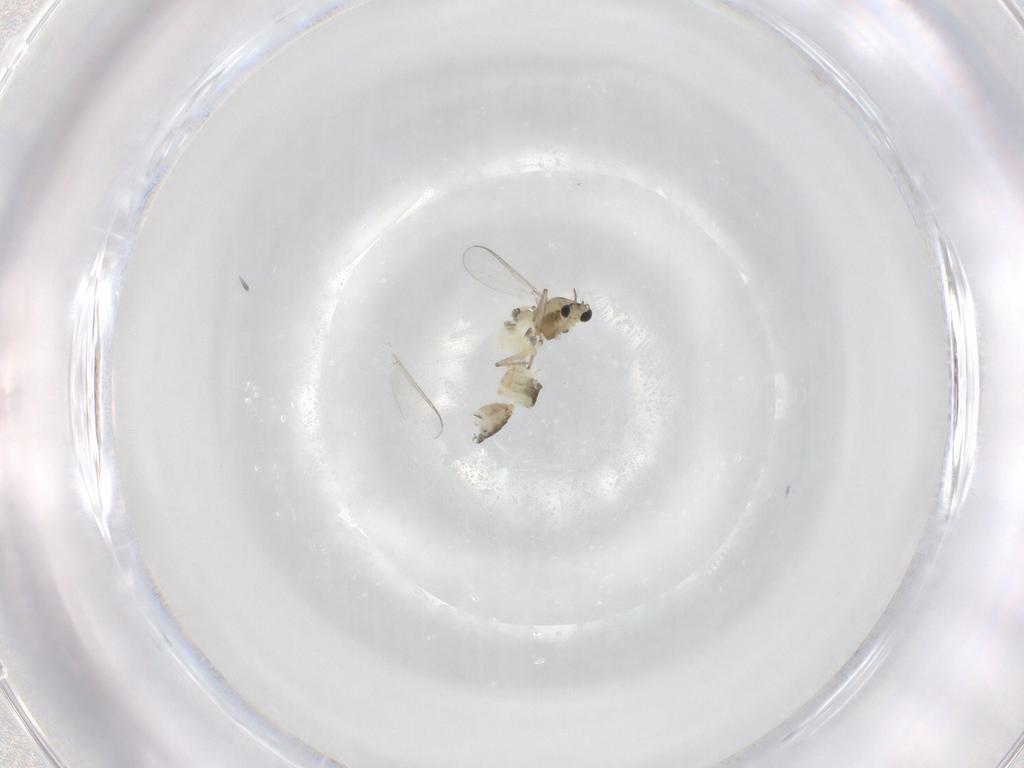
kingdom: Animalia
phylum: Arthropoda
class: Insecta
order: Diptera
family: Chironomidae
